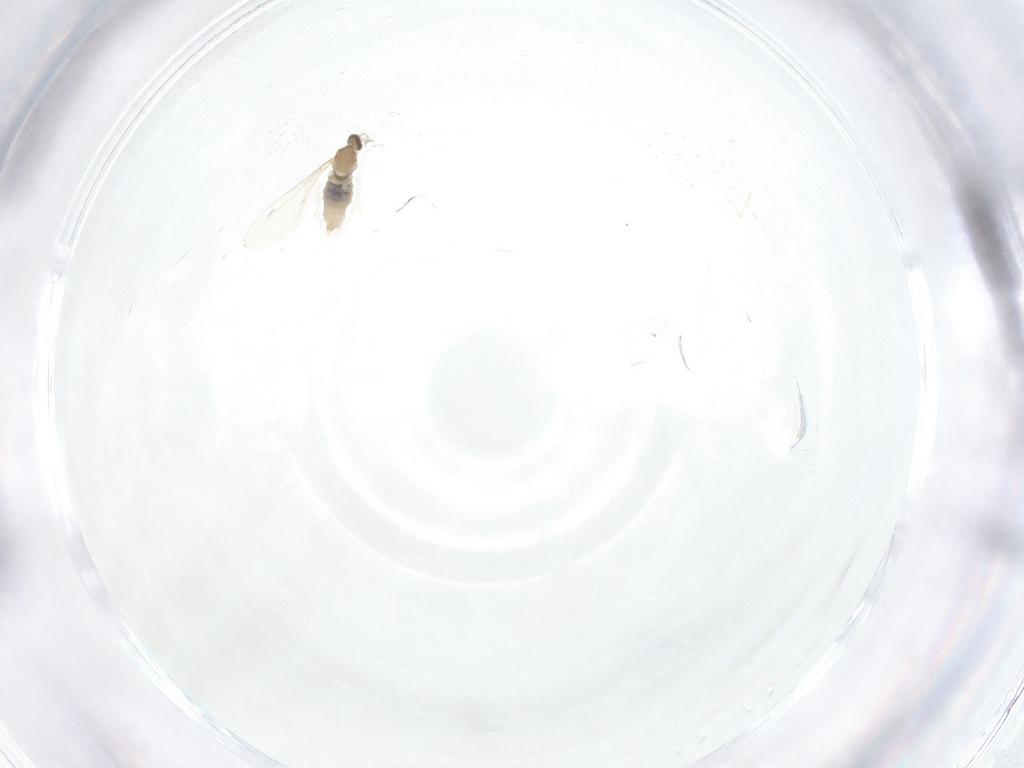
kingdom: Animalia
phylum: Arthropoda
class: Insecta
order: Diptera
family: Cecidomyiidae
